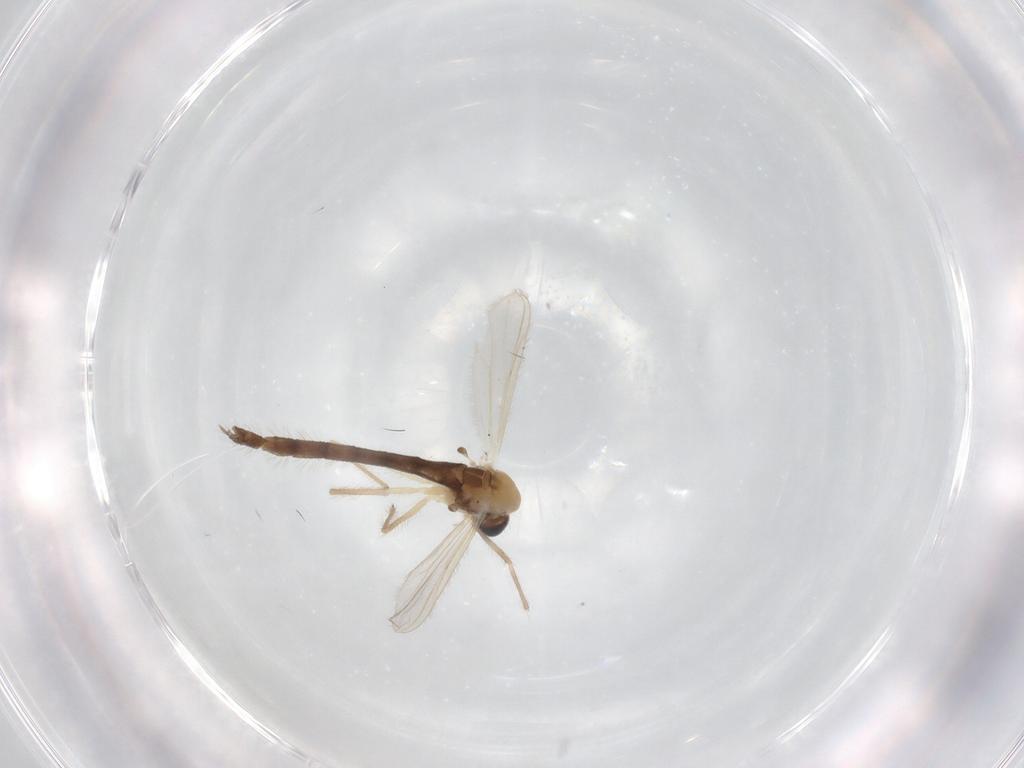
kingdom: Animalia
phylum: Arthropoda
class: Insecta
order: Diptera
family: Chironomidae
